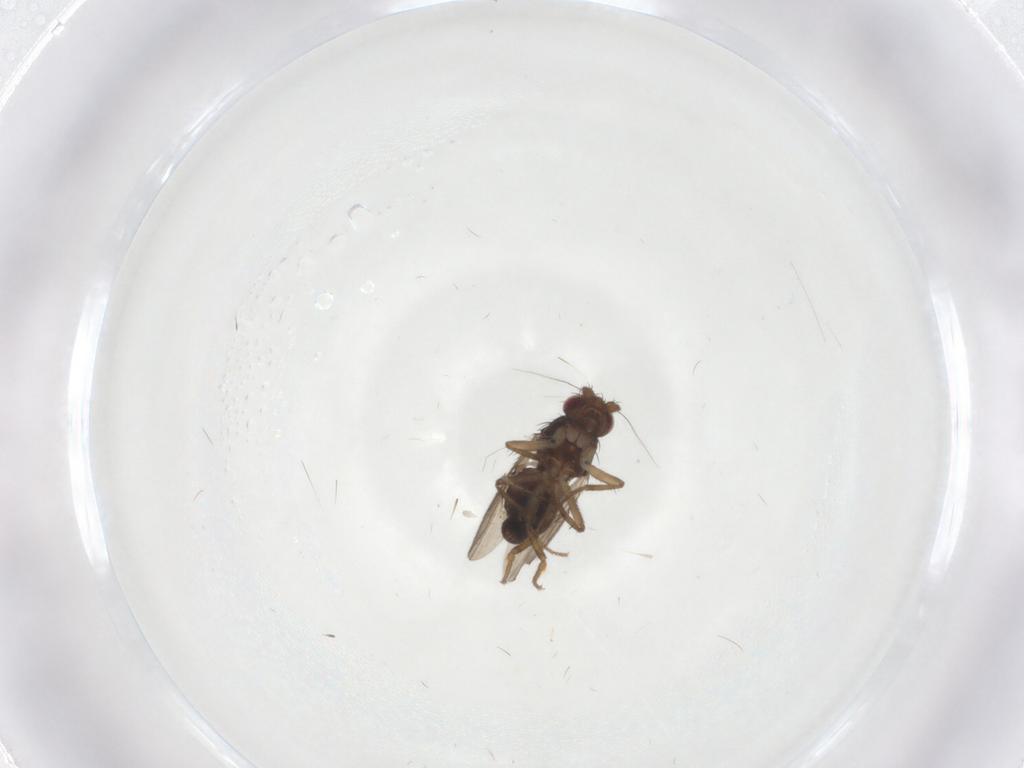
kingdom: Animalia
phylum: Arthropoda
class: Insecta
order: Diptera
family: Sphaeroceridae
